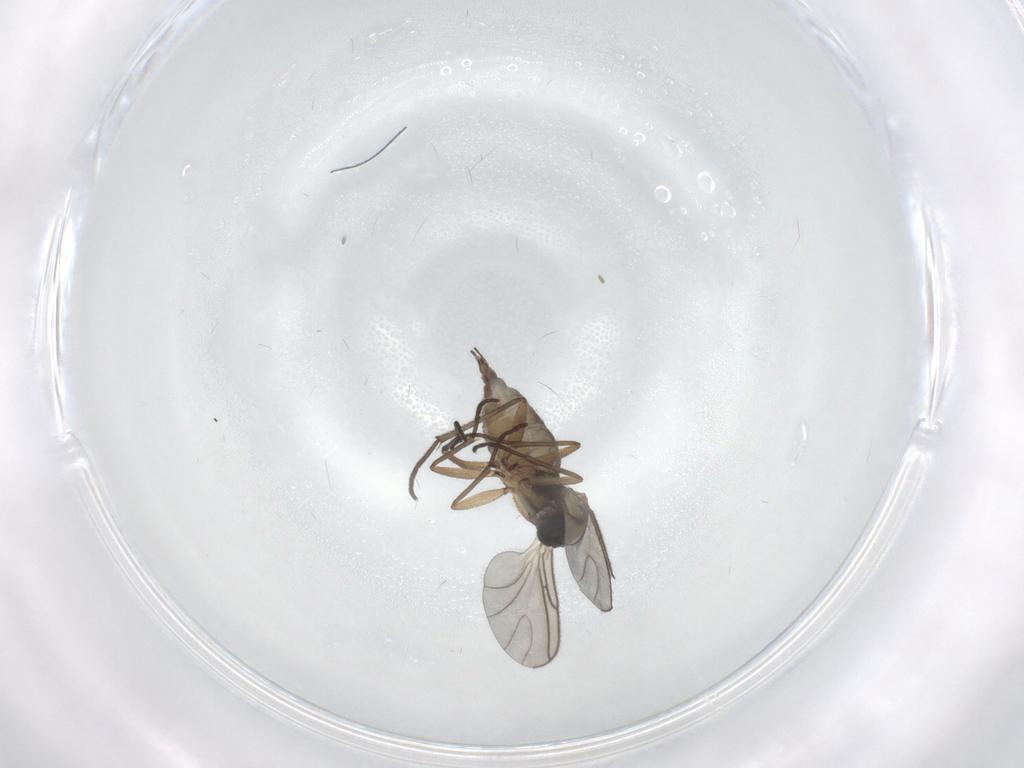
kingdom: Animalia
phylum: Arthropoda
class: Insecta
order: Diptera
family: Sciaridae
